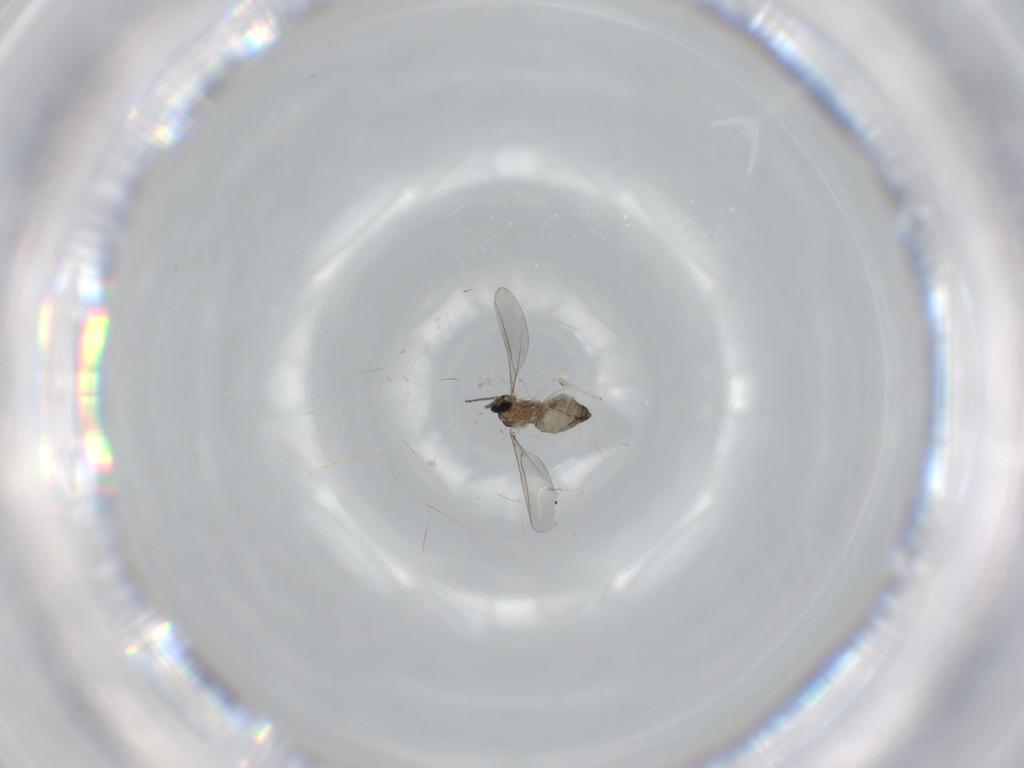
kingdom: Animalia
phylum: Arthropoda
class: Insecta
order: Diptera
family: Cecidomyiidae
